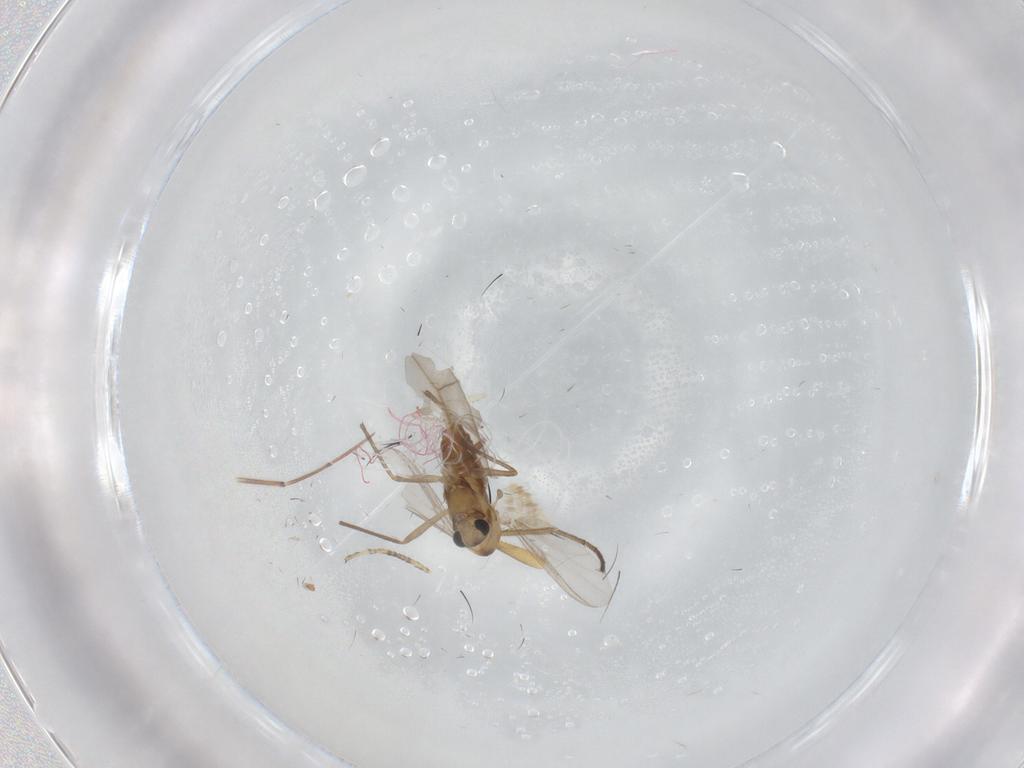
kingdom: Animalia
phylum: Arthropoda
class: Insecta
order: Diptera
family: Chironomidae
